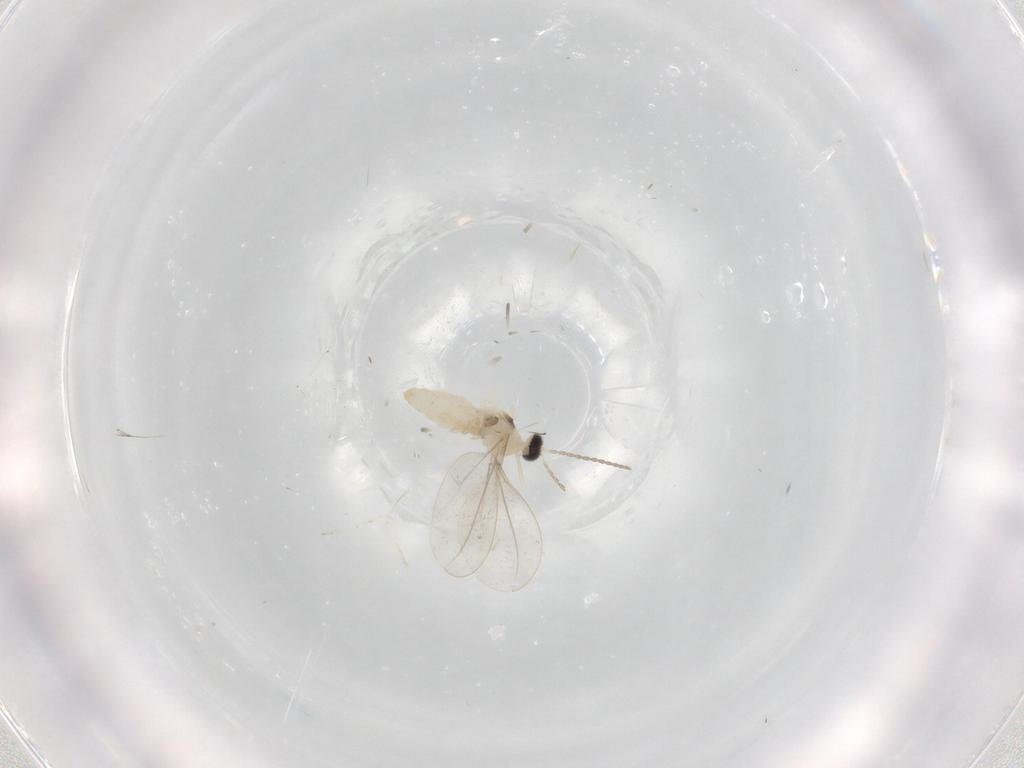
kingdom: Animalia
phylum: Arthropoda
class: Insecta
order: Diptera
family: Cecidomyiidae
